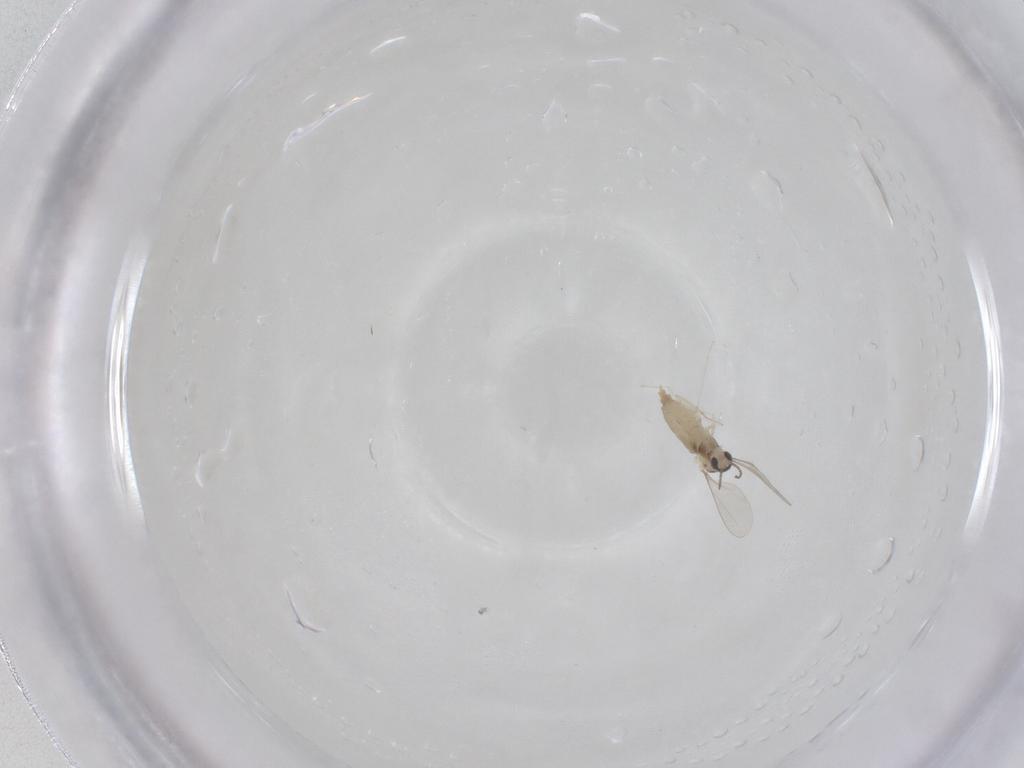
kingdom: Animalia
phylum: Arthropoda
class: Insecta
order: Diptera
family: Cecidomyiidae
